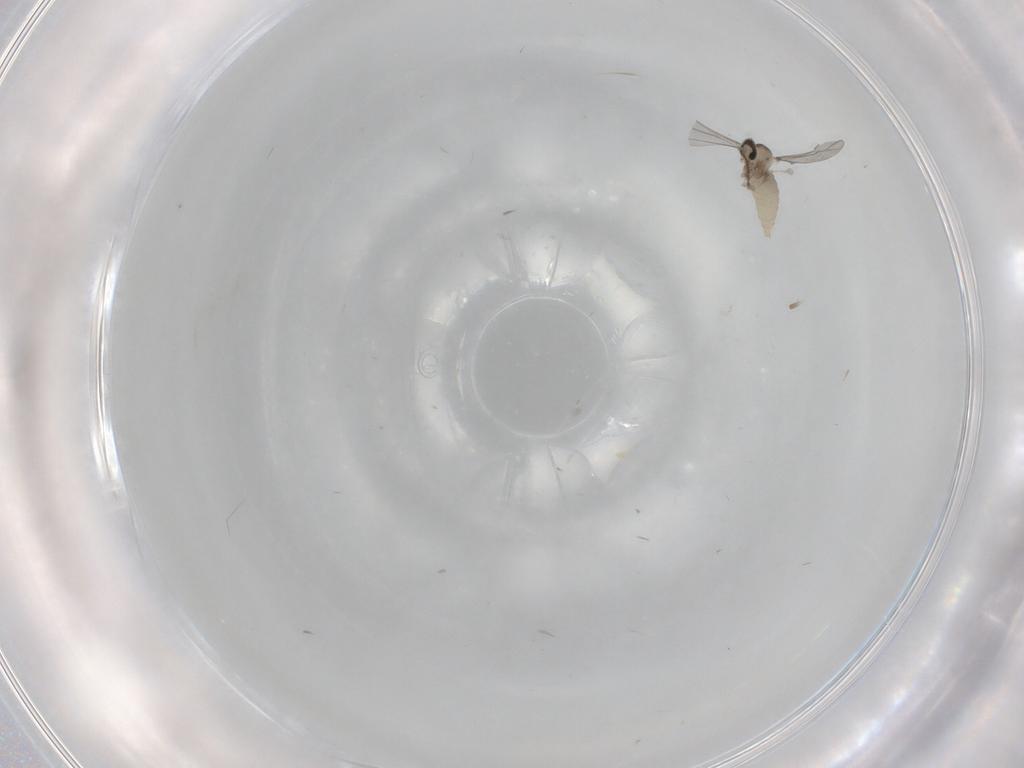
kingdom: Animalia
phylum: Arthropoda
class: Insecta
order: Diptera
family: Cecidomyiidae
